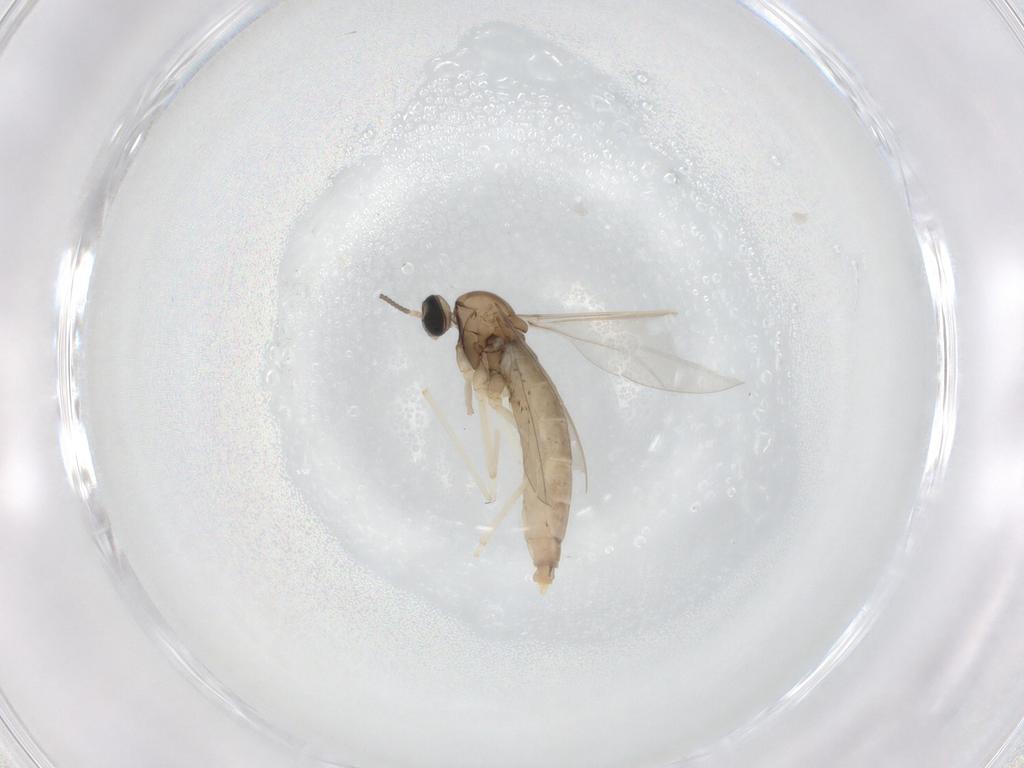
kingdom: Animalia
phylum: Arthropoda
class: Insecta
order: Diptera
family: Cecidomyiidae
